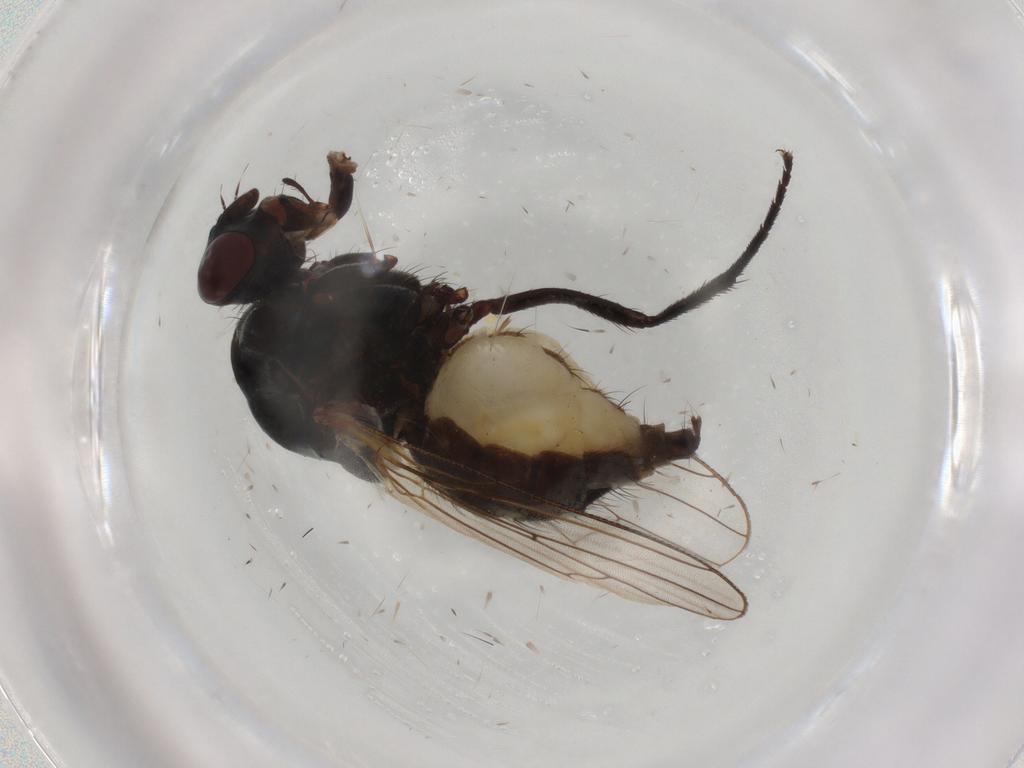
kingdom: Animalia
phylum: Arthropoda
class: Insecta
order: Diptera
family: Anthomyiidae
